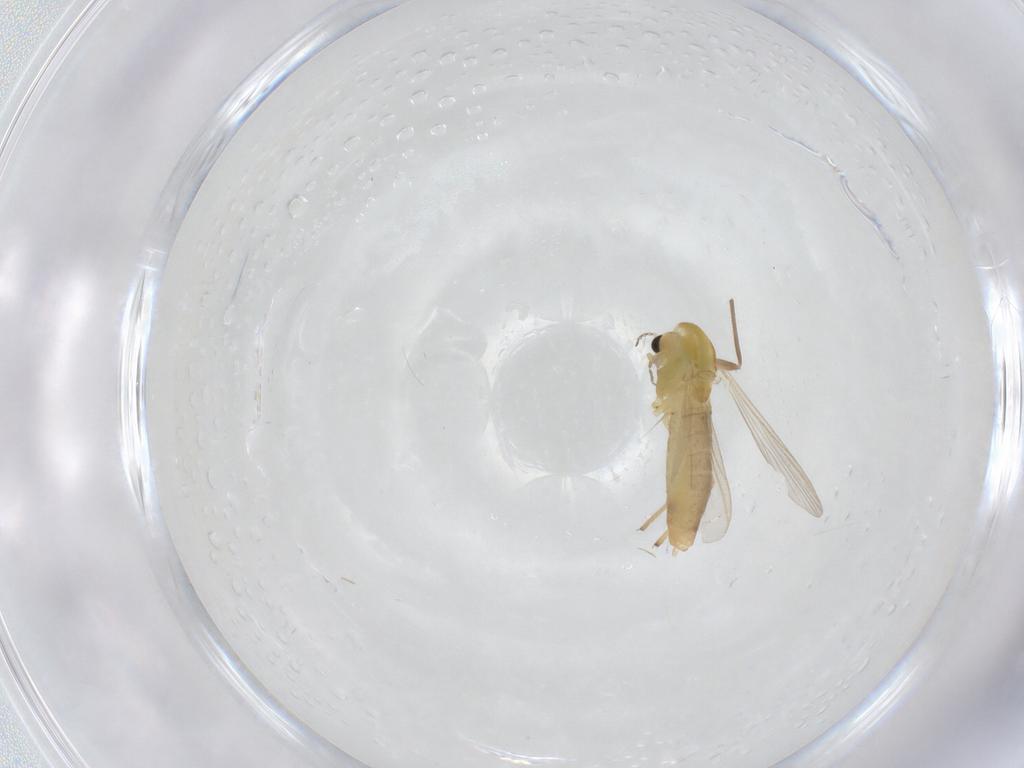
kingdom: Animalia
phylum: Arthropoda
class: Insecta
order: Diptera
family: Chironomidae
